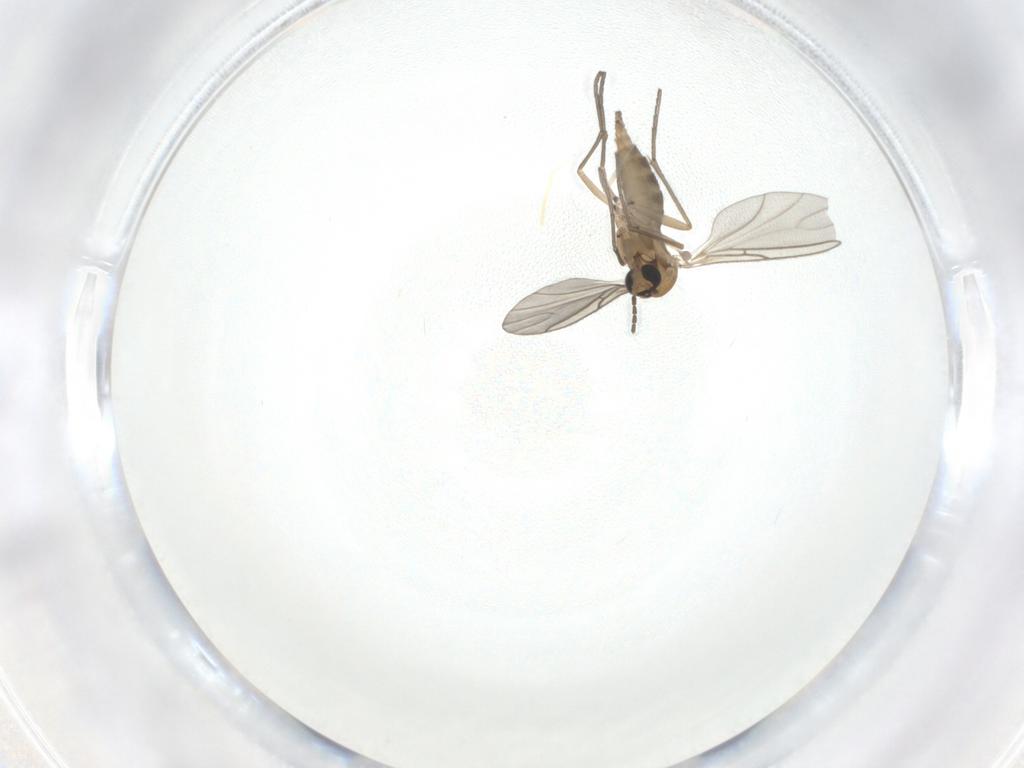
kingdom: Animalia
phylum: Arthropoda
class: Insecta
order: Diptera
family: Sciaridae
